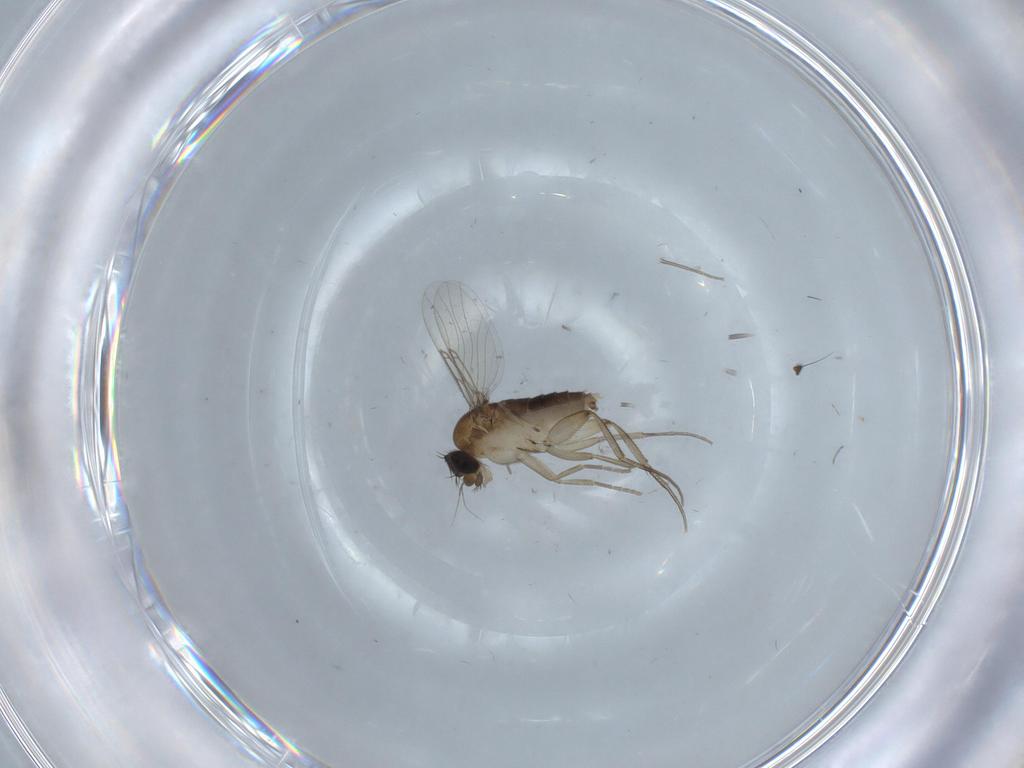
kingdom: Animalia
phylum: Arthropoda
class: Insecta
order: Diptera
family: Phoridae
